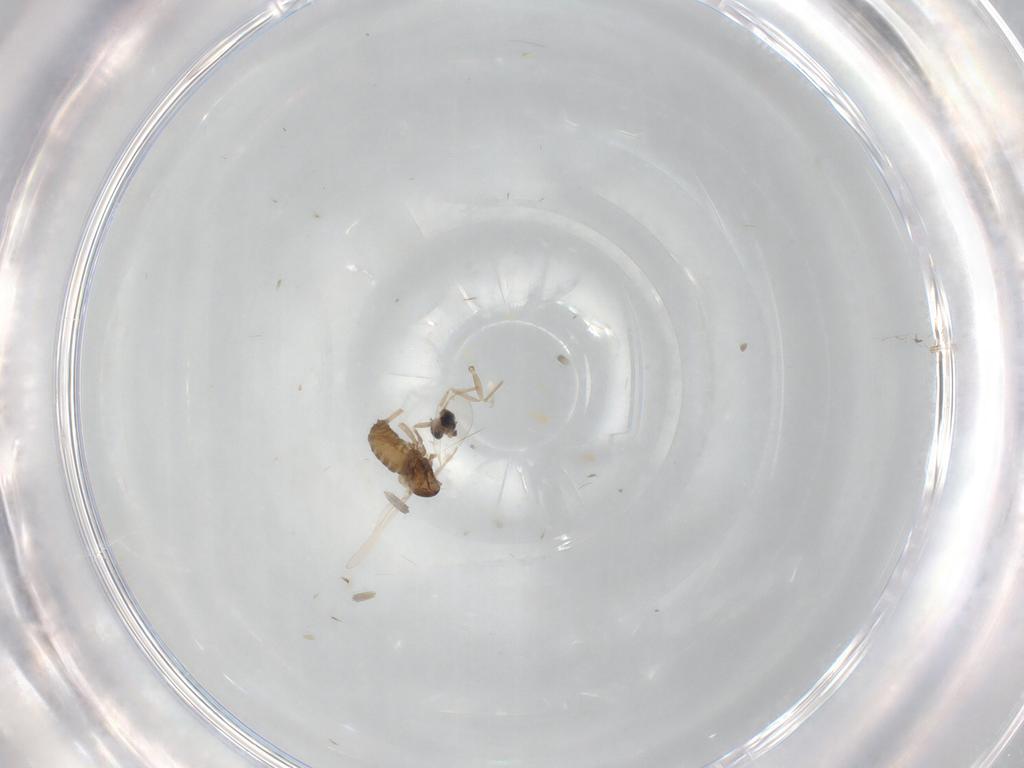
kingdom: Animalia
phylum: Arthropoda
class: Insecta
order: Diptera
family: Cecidomyiidae
